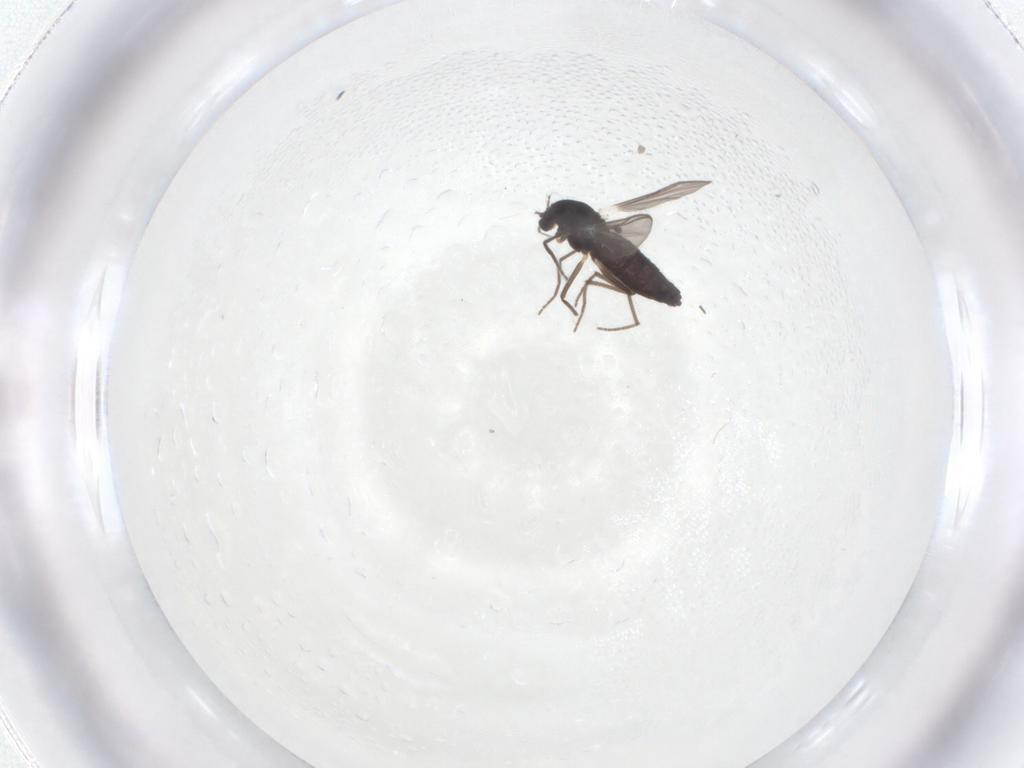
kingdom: Animalia
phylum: Arthropoda
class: Insecta
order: Diptera
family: Chironomidae
